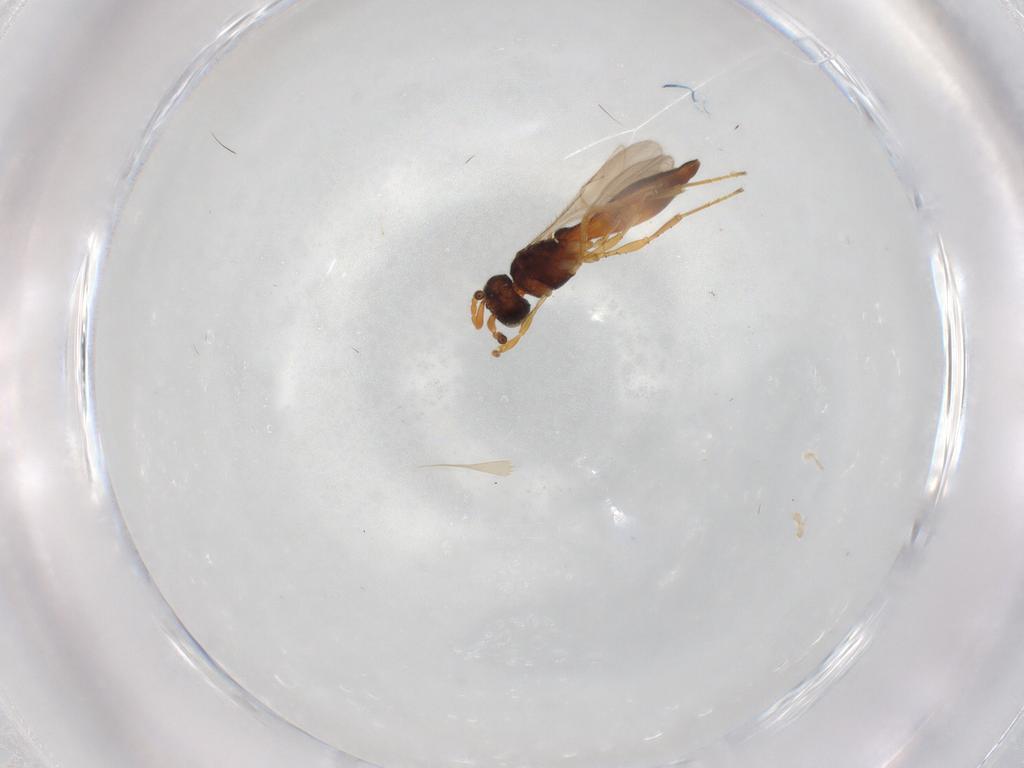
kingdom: Animalia
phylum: Arthropoda
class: Insecta
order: Hymenoptera
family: Scelionidae
